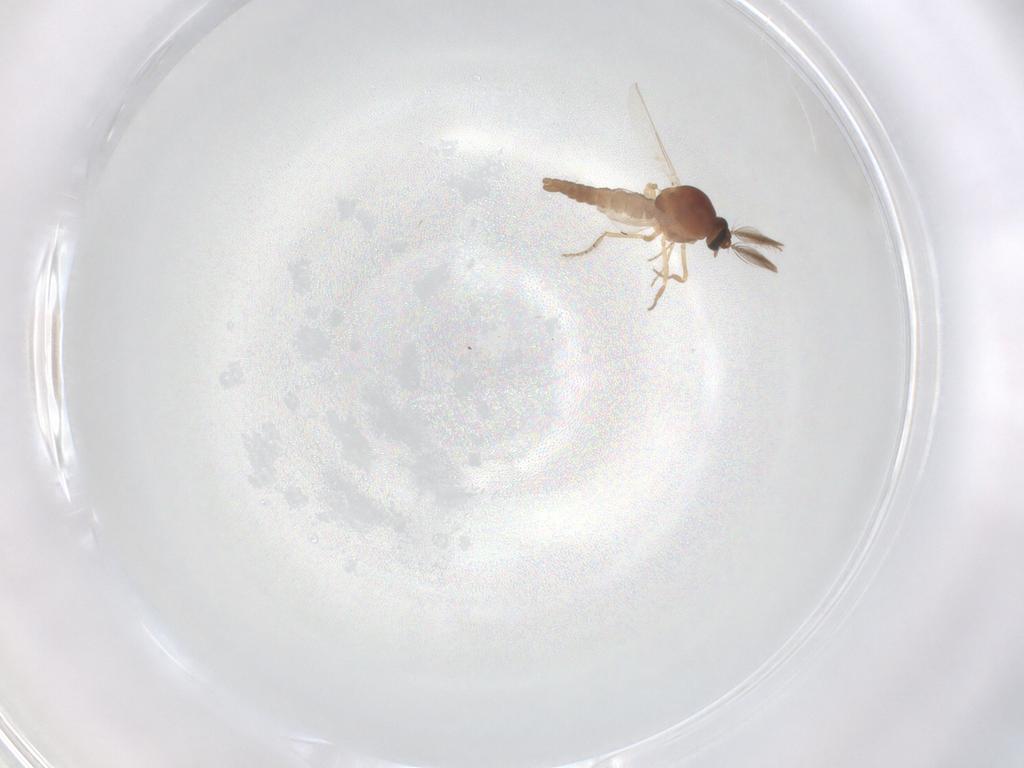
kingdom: Animalia
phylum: Arthropoda
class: Insecta
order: Diptera
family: Ceratopogonidae
